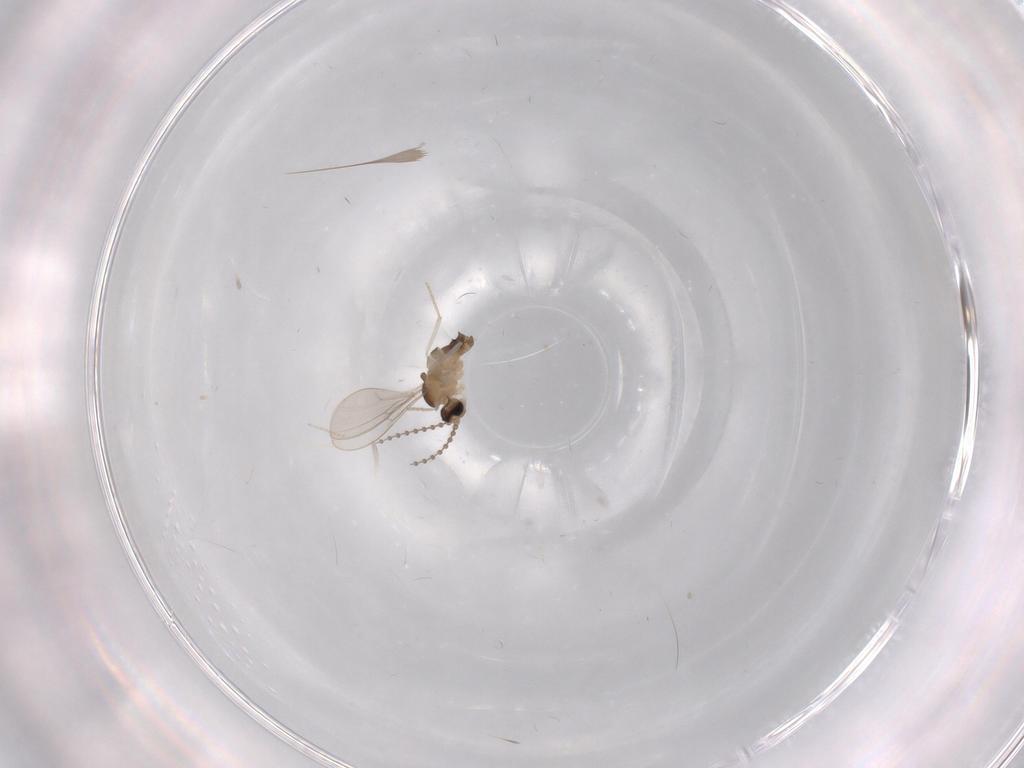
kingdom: Animalia
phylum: Arthropoda
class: Insecta
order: Diptera
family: Cecidomyiidae
